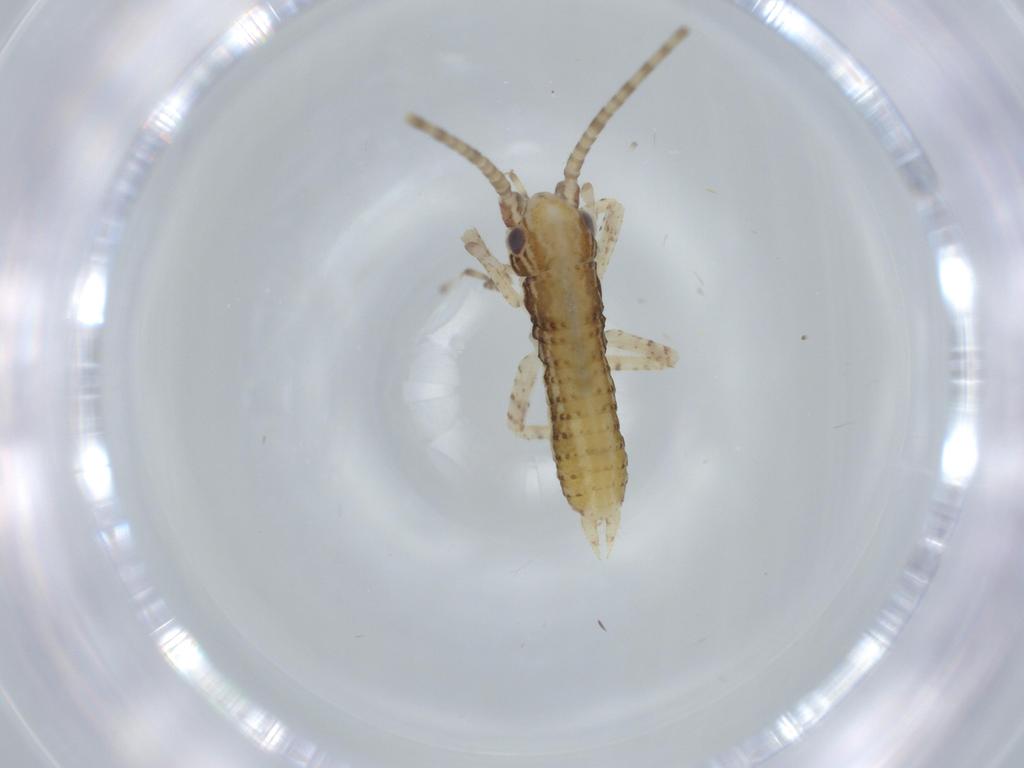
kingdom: Animalia
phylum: Arthropoda
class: Insecta
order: Orthoptera
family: Gryllidae
